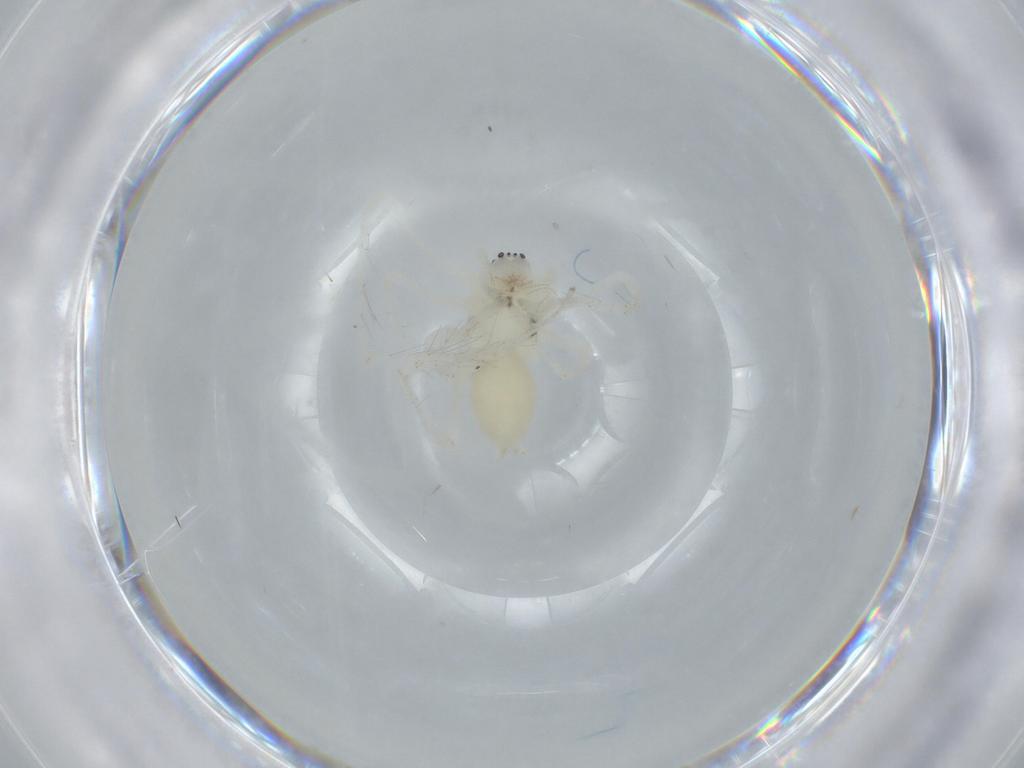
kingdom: Animalia
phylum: Arthropoda
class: Arachnida
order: Araneae
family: Anyphaenidae
